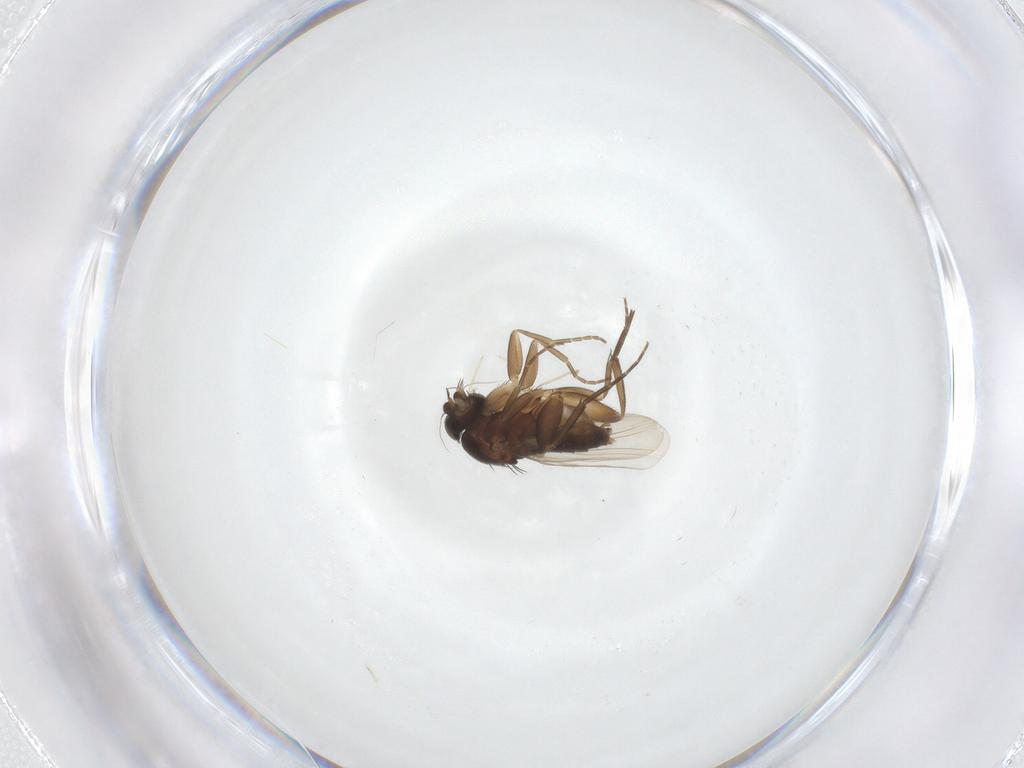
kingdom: Animalia
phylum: Arthropoda
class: Insecta
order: Diptera
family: Phoridae
